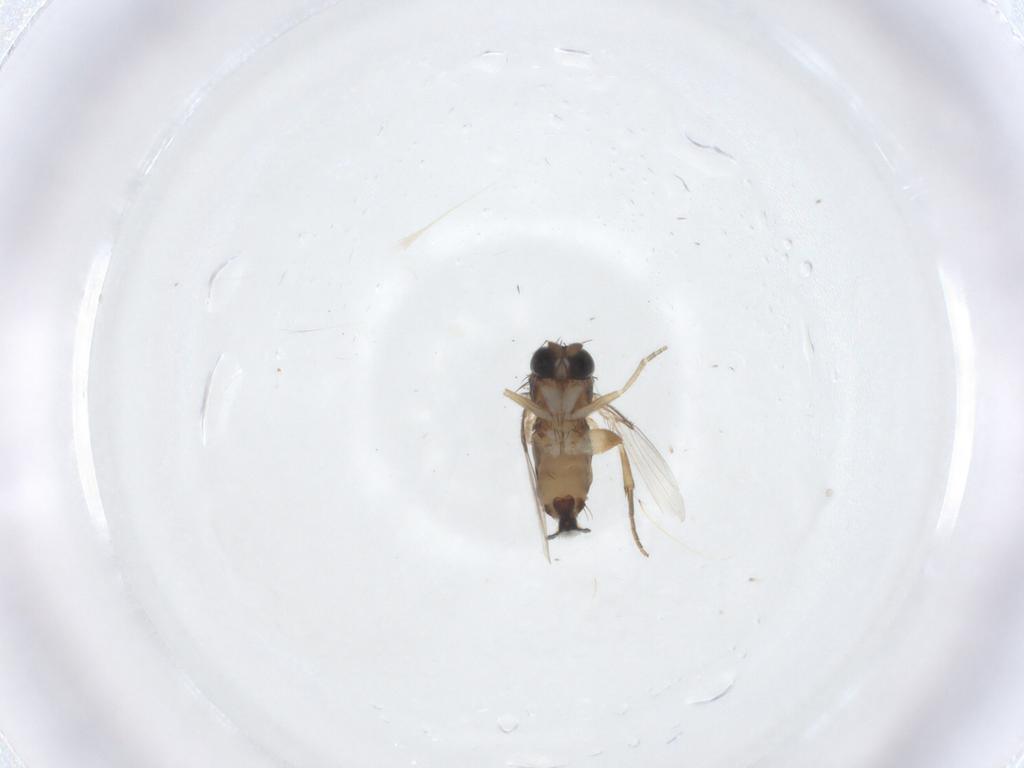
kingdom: Animalia
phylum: Arthropoda
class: Insecta
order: Diptera
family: Phoridae
